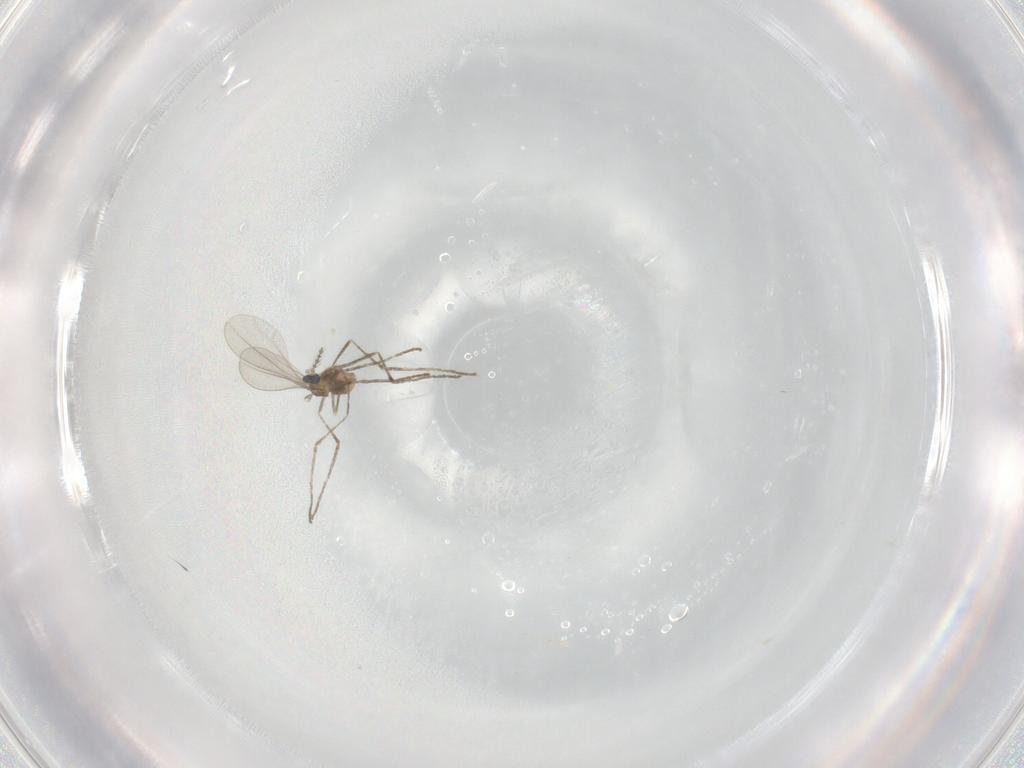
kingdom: Animalia
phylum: Arthropoda
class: Insecta
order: Diptera
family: Cecidomyiidae
